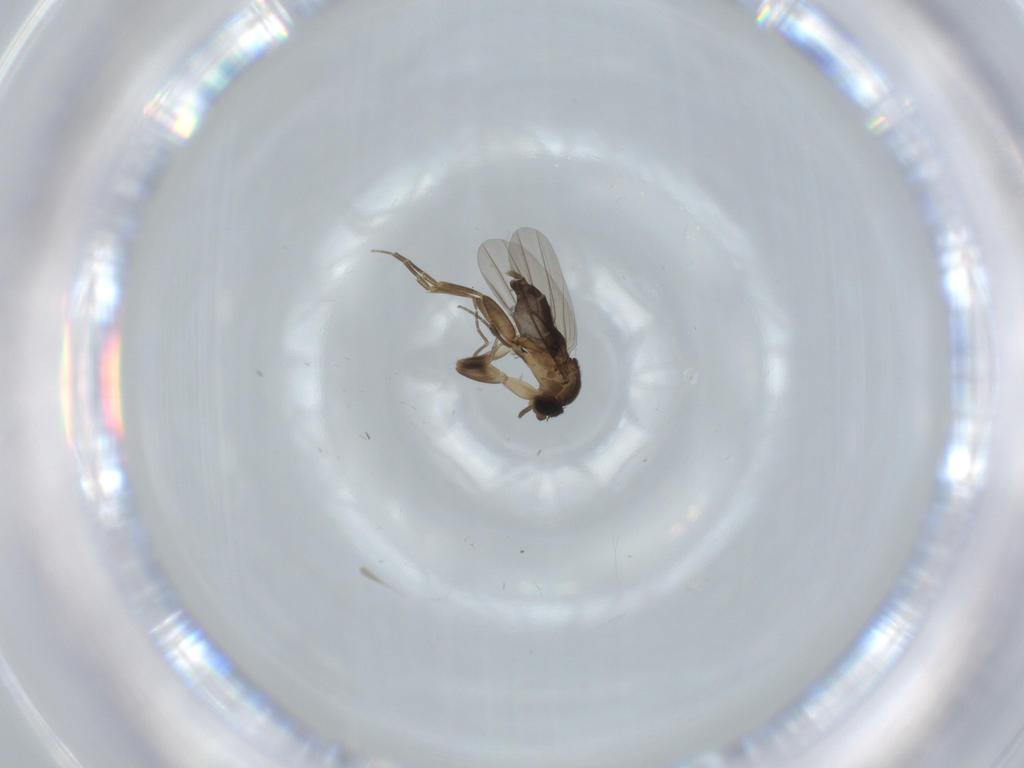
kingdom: Animalia
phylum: Arthropoda
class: Insecta
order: Diptera
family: Phoridae
